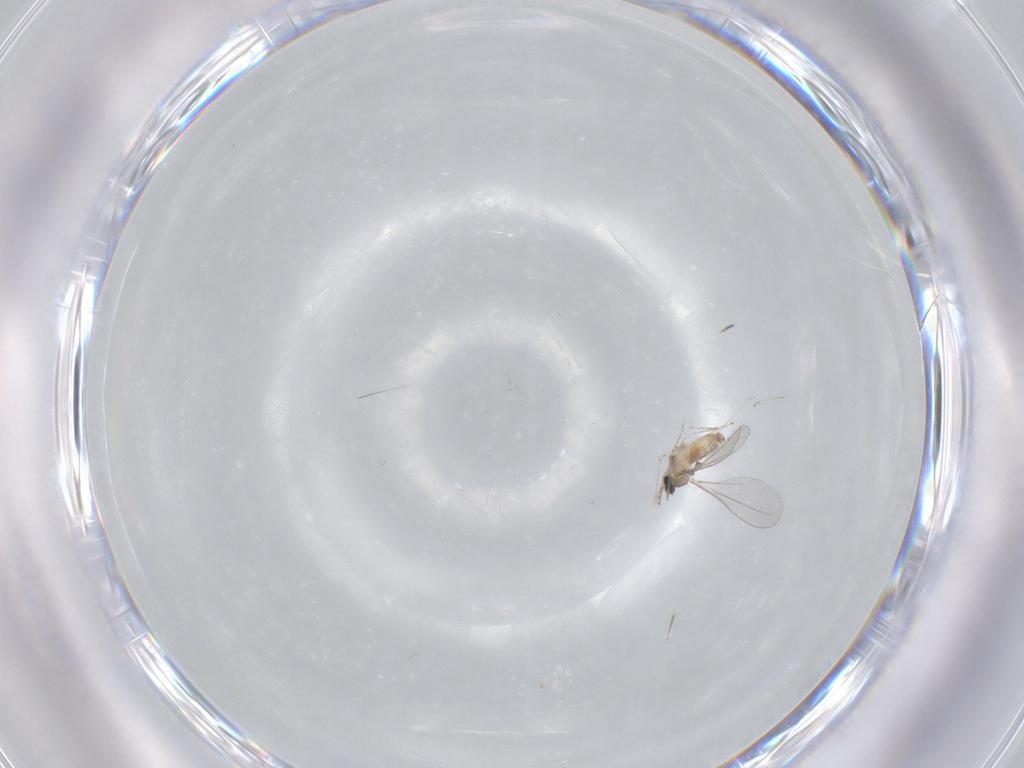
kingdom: Animalia
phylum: Arthropoda
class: Insecta
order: Diptera
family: Cecidomyiidae
